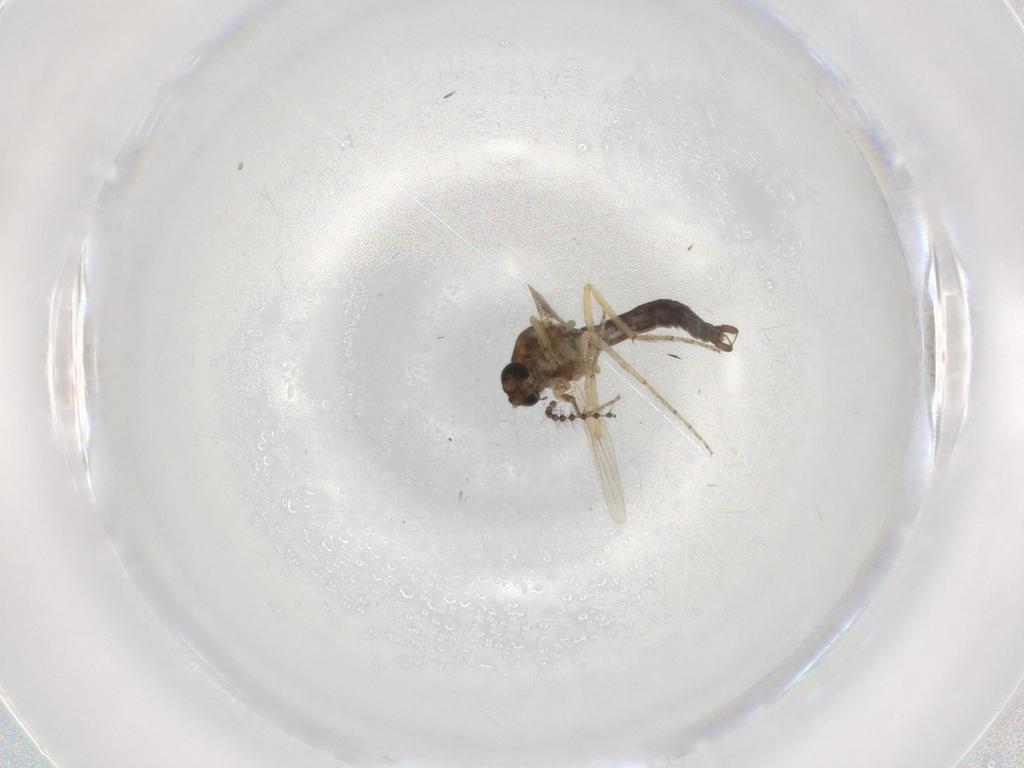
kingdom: Animalia
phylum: Arthropoda
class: Insecta
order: Diptera
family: Ceratopogonidae
